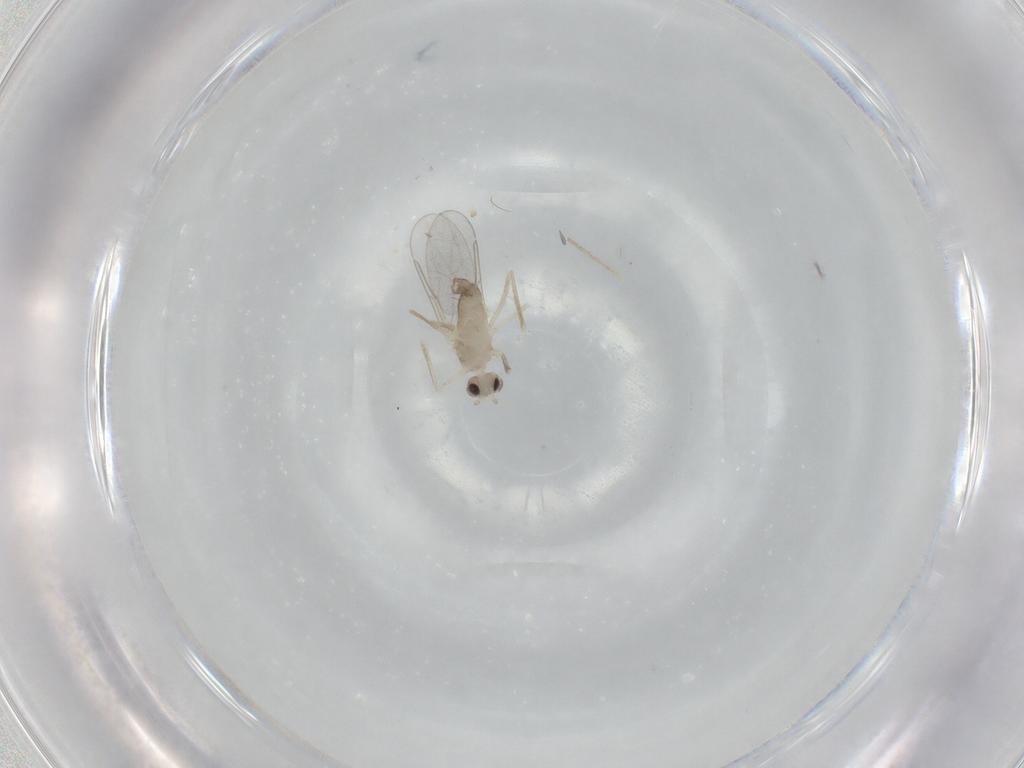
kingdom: Animalia
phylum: Arthropoda
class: Insecta
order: Diptera
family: Cecidomyiidae
